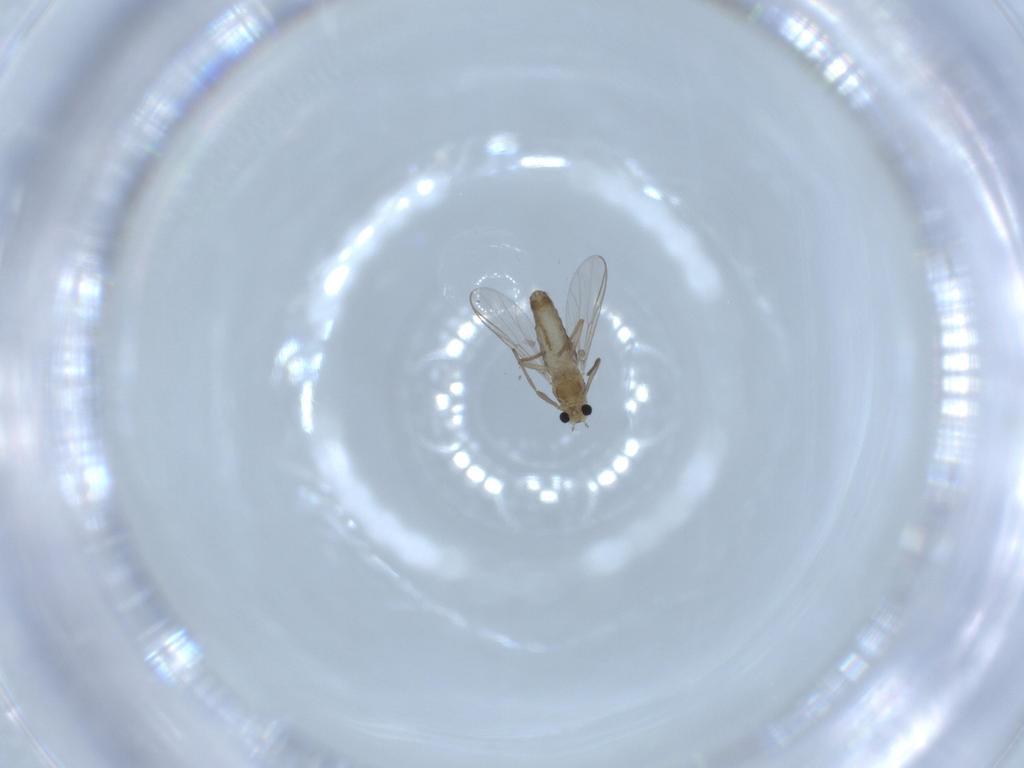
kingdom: Animalia
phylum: Arthropoda
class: Insecta
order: Diptera
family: Chironomidae
